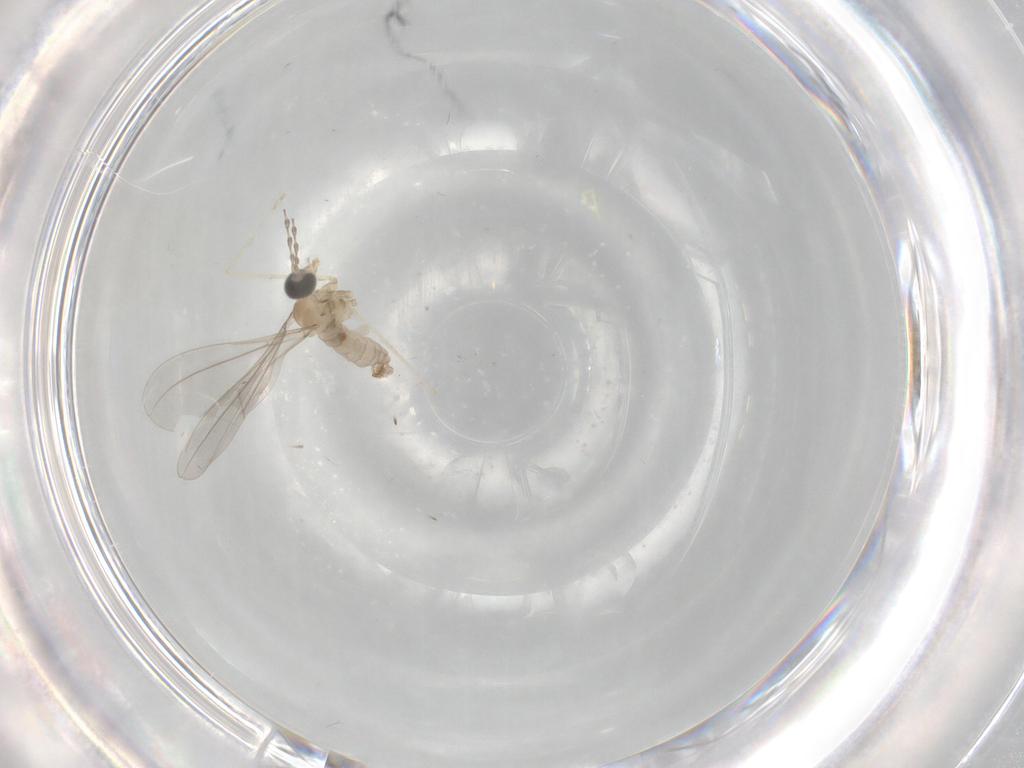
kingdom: Animalia
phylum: Arthropoda
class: Insecta
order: Diptera
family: Cecidomyiidae
